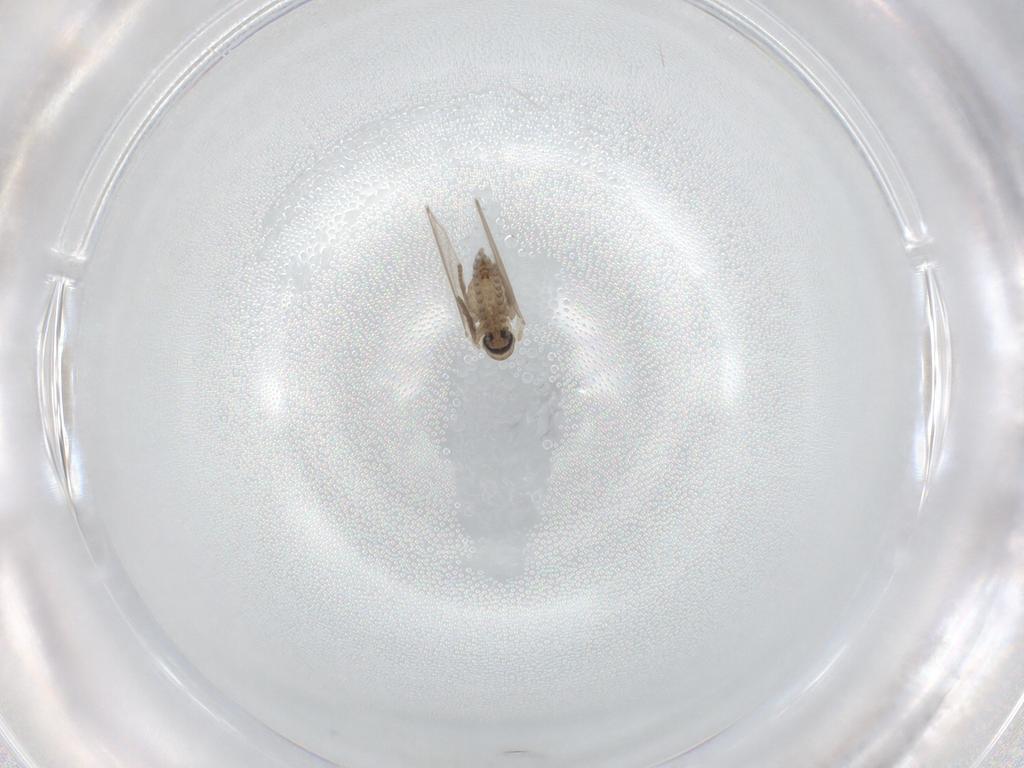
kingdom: Animalia
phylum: Arthropoda
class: Insecta
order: Diptera
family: Psychodidae
